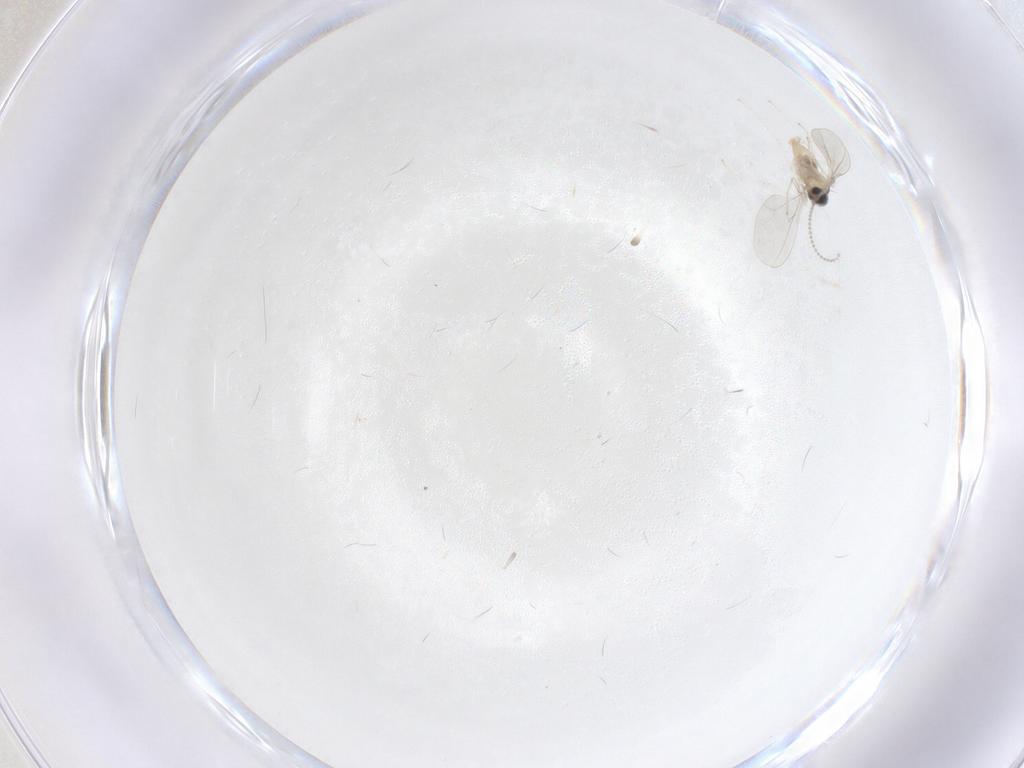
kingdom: Animalia
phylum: Arthropoda
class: Insecta
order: Diptera
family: Cecidomyiidae
